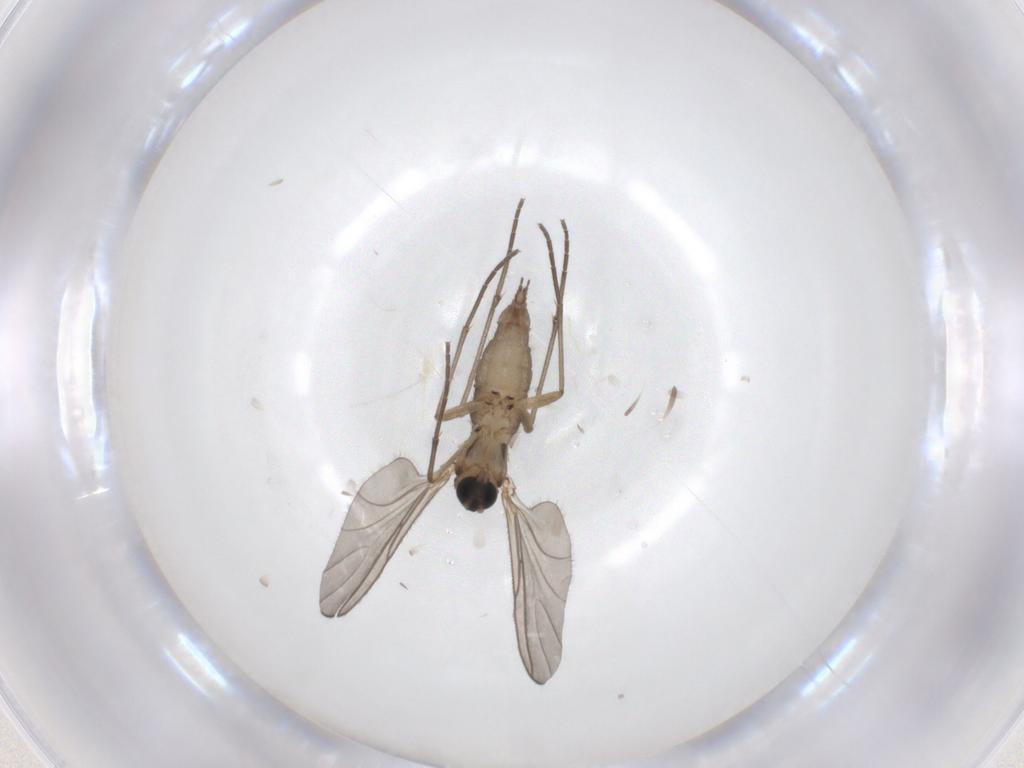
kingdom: Animalia
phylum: Arthropoda
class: Insecta
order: Diptera
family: Sciaridae
